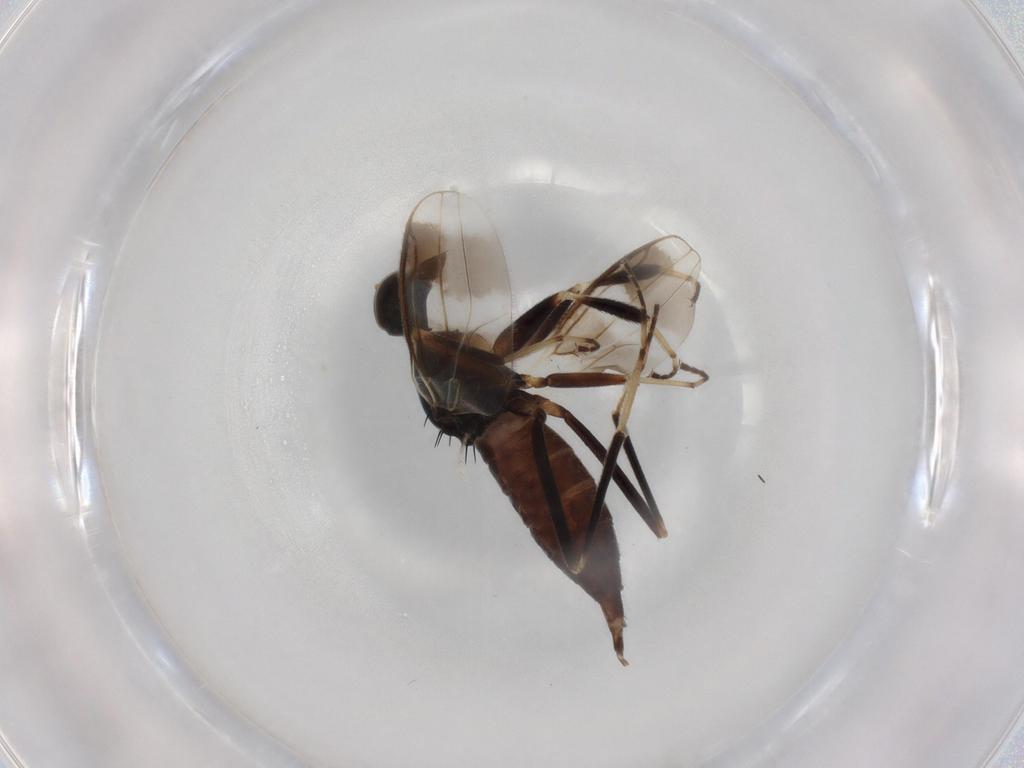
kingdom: Animalia
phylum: Arthropoda
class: Insecta
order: Diptera
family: Hybotidae
